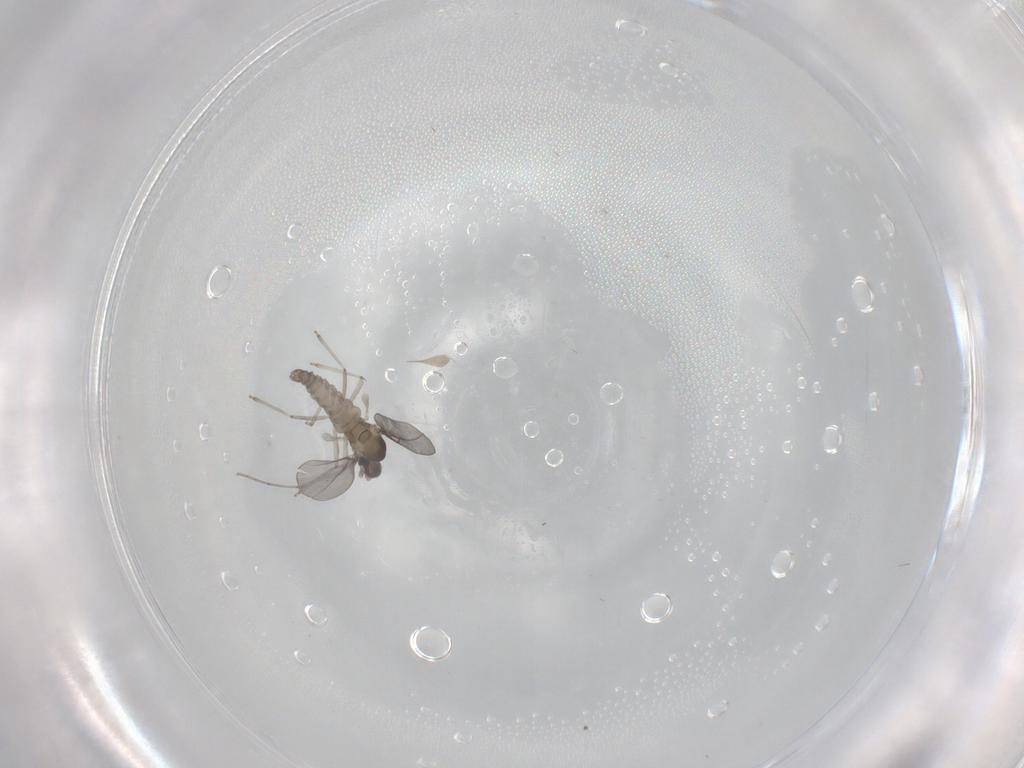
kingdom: Animalia
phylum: Arthropoda
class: Insecta
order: Diptera
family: Cecidomyiidae
